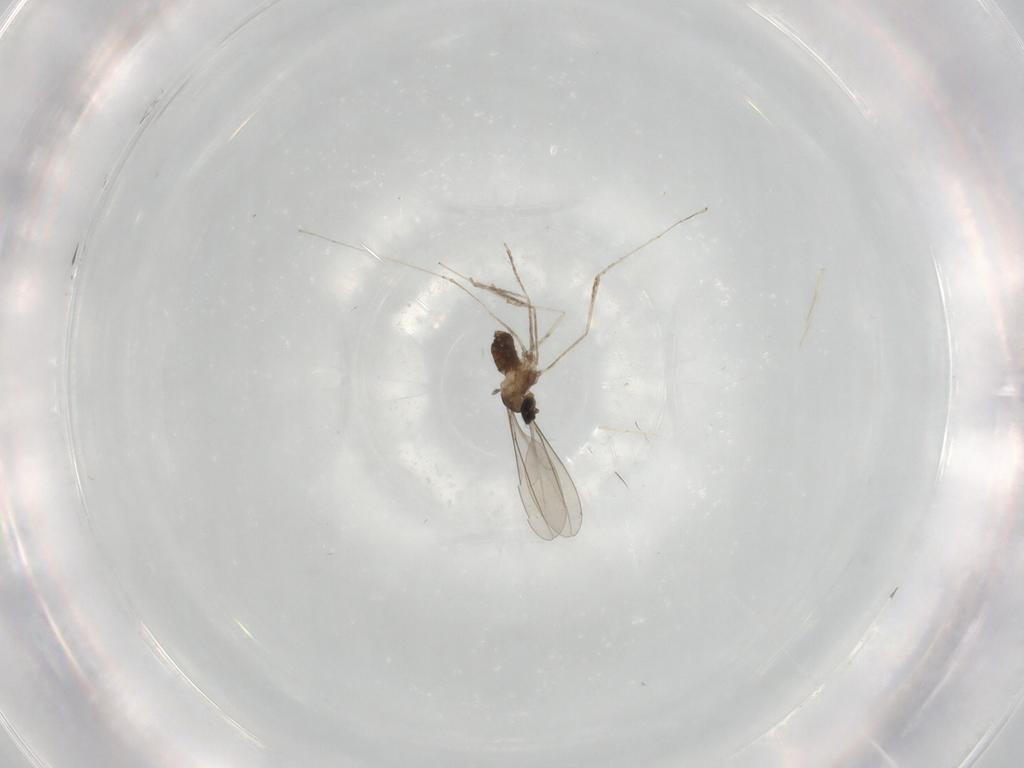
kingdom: Animalia
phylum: Arthropoda
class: Insecta
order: Diptera
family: Cecidomyiidae
